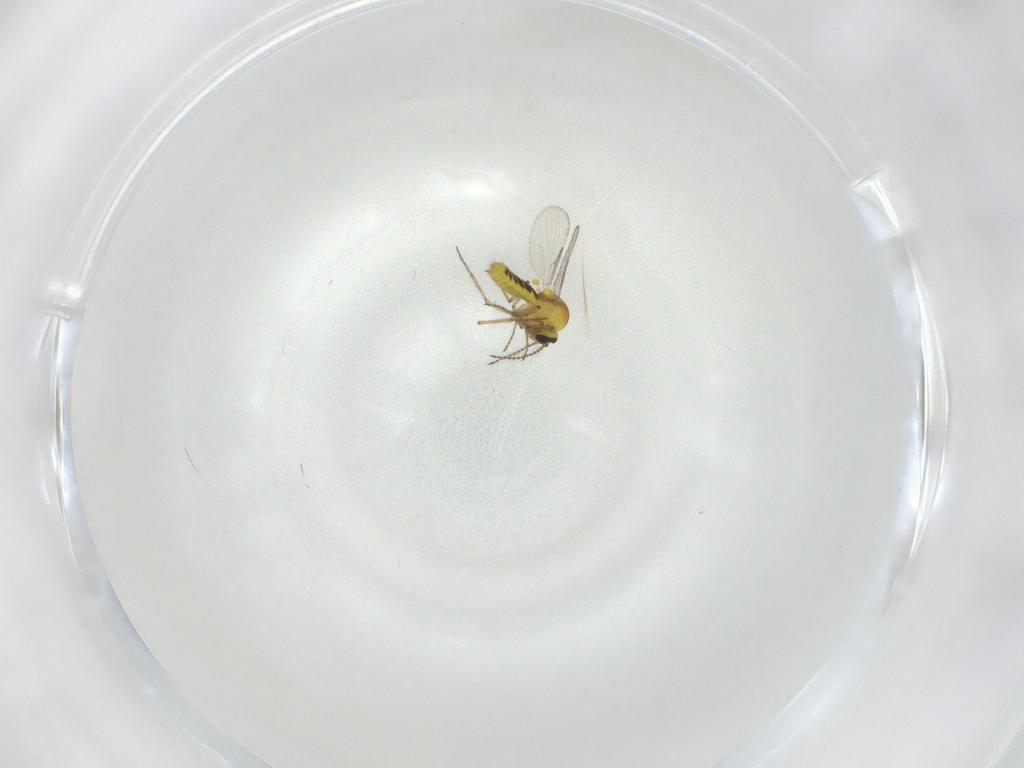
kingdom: Animalia
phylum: Arthropoda
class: Insecta
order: Diptera
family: Ceratopogonidae
